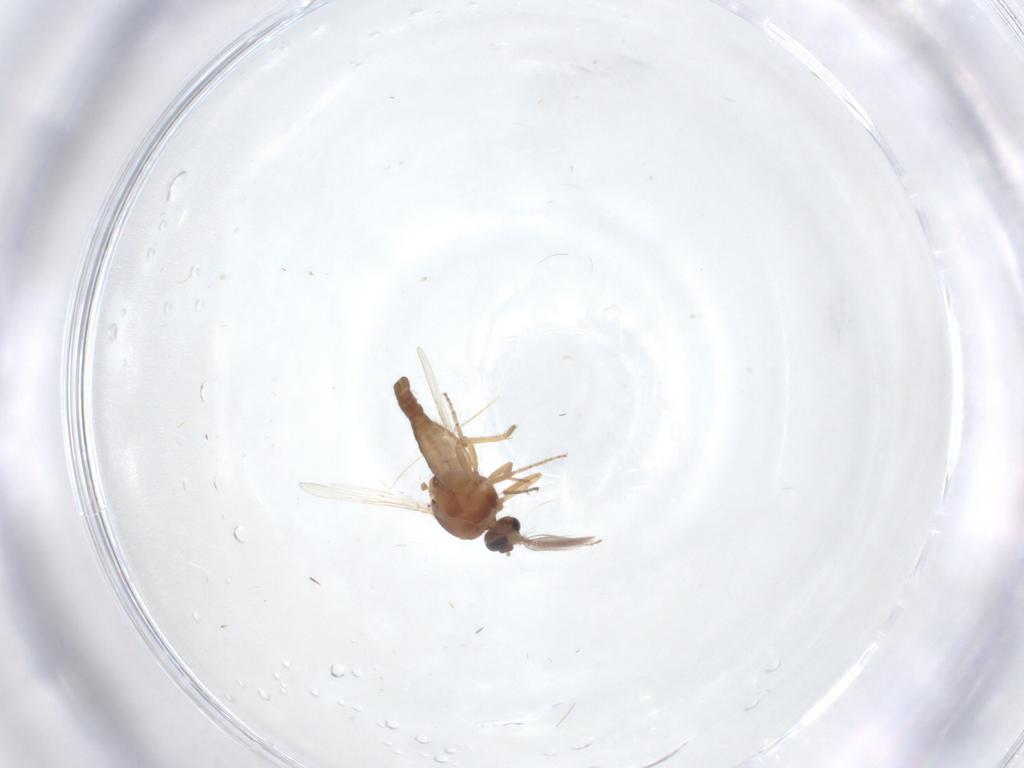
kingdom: Animalia
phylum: Arthropoda
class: Insecta
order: Diptera
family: Ceratopogonidae
